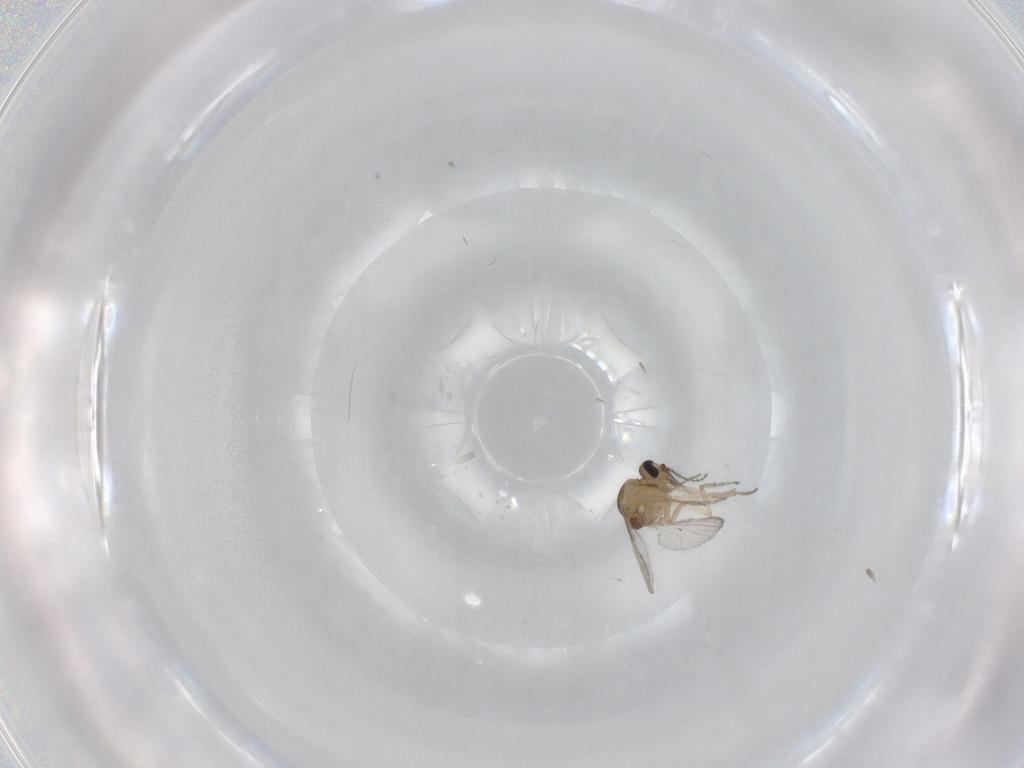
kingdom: Animalia
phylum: Arthropoda
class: Insecta
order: Diptera
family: Ceratopogonidae
